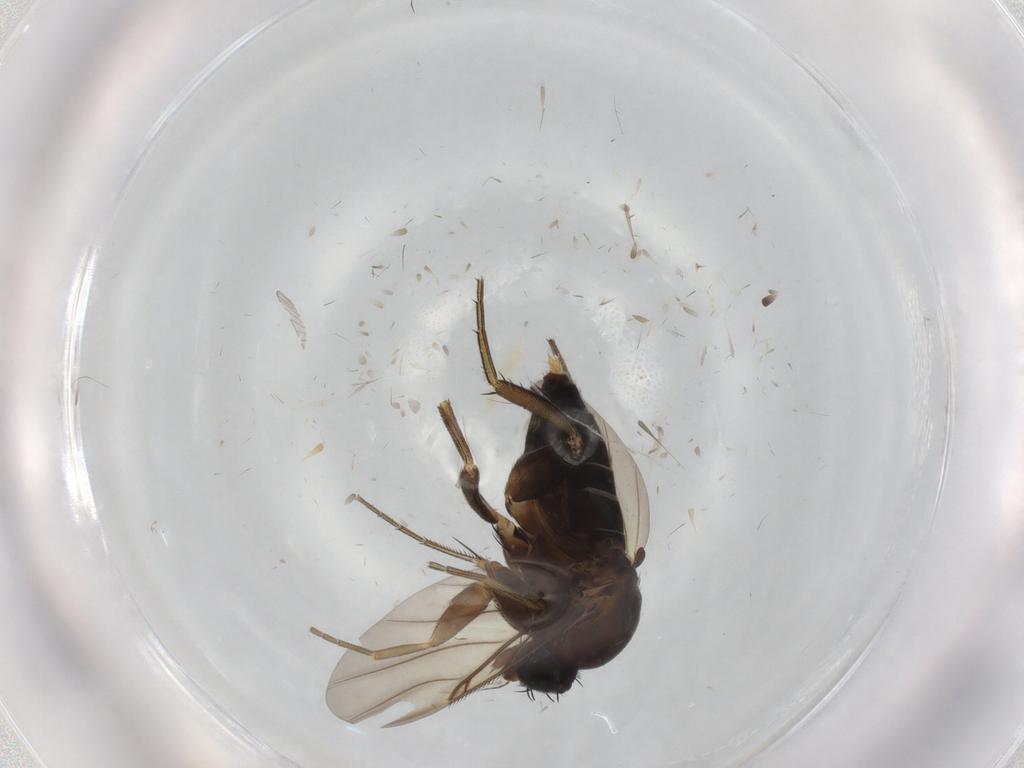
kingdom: Animalia
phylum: Arthropoda
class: Insecta
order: Diptera
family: Phoridae
